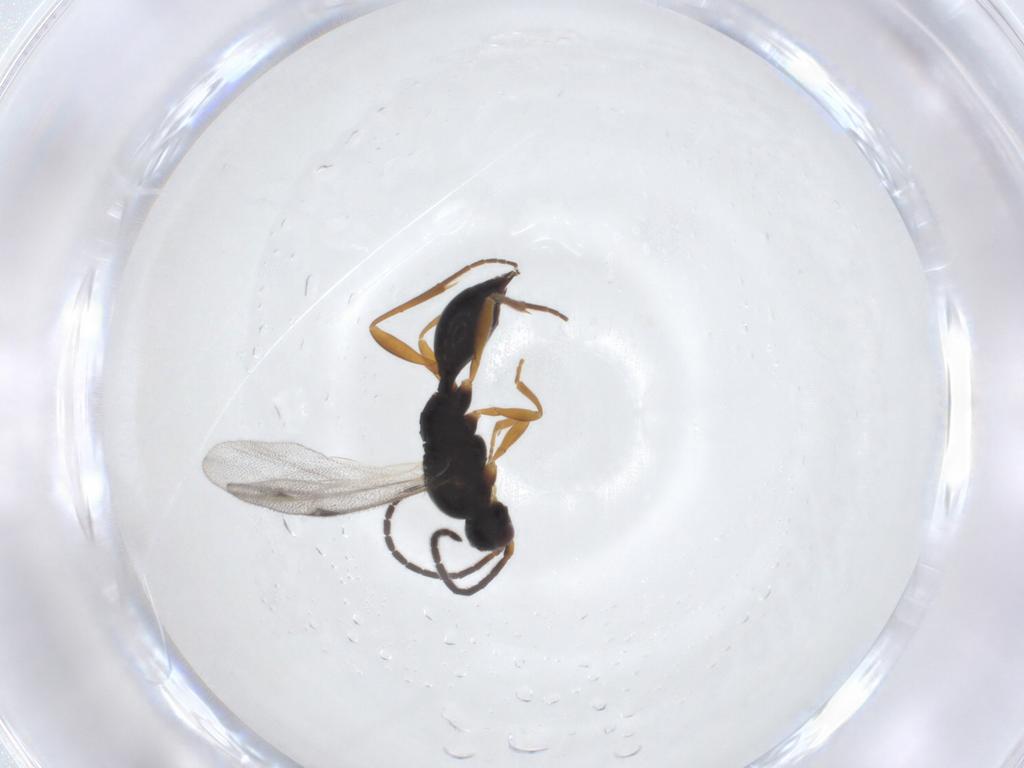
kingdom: Animalia
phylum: Arthropoda
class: Insecta
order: Hymenoptera
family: Proctotrupidae
